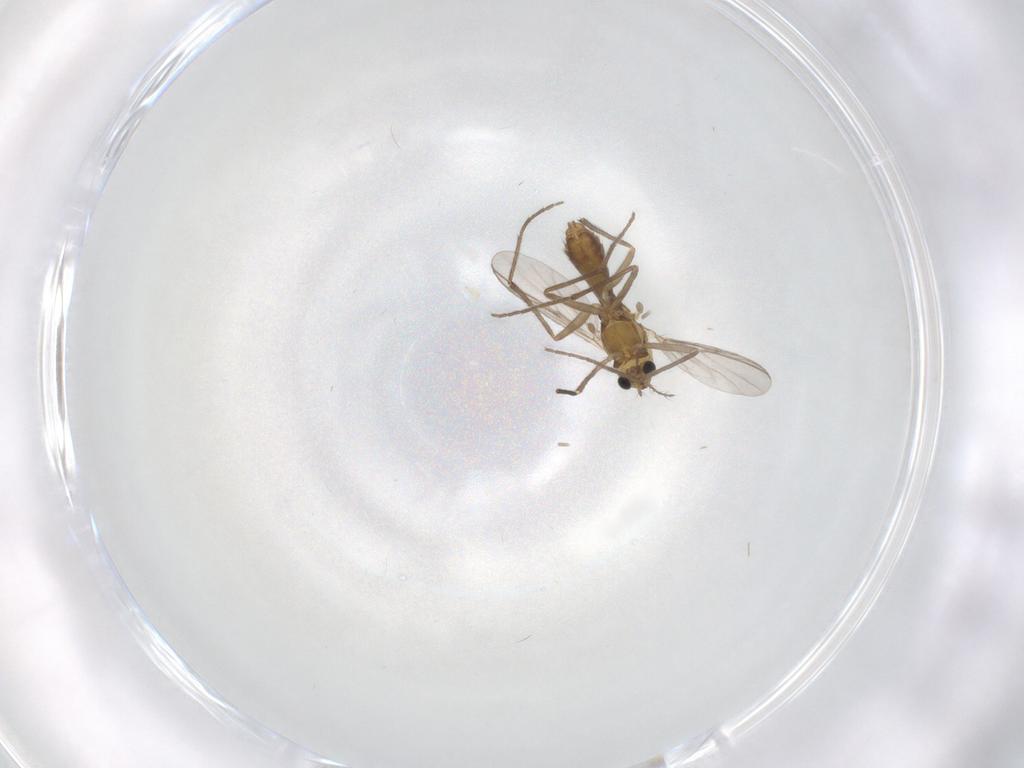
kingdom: Animalia
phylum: Arthropoda
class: Insecta
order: Diptera
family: Chironomidae
